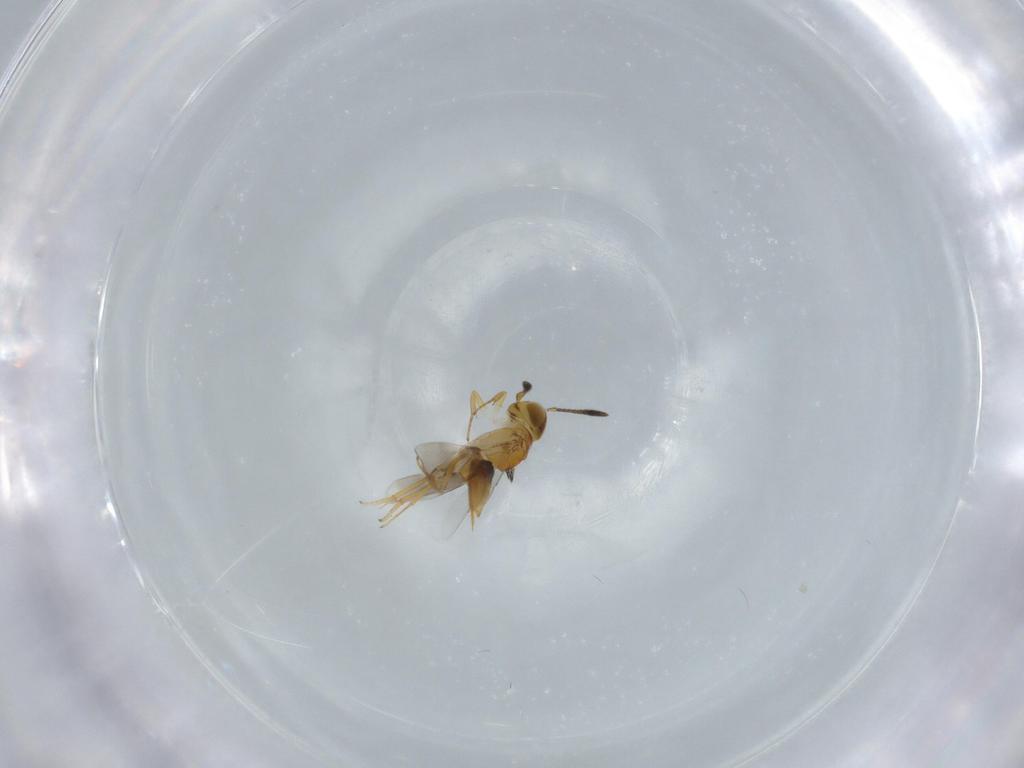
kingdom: Animalia
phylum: Arthropoda
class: Insecta
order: Hymenoptera
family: Encyrtidae
